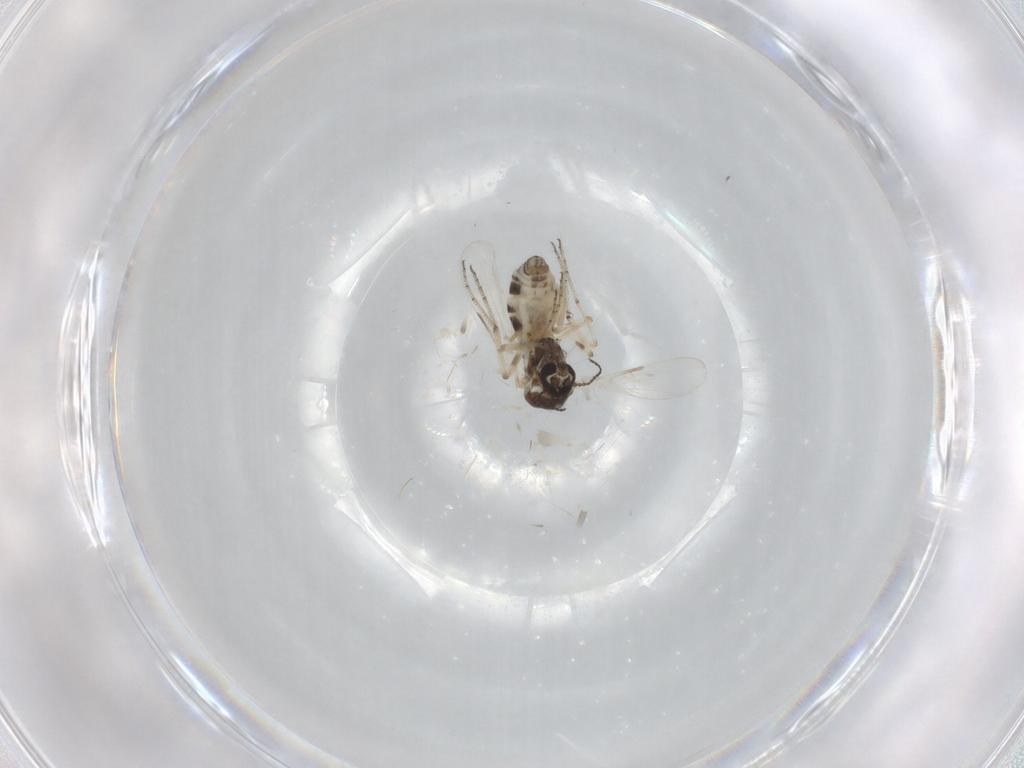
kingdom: Animalia
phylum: Arthropoda
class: Insecta
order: Diptera
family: Ceratopogonidae
